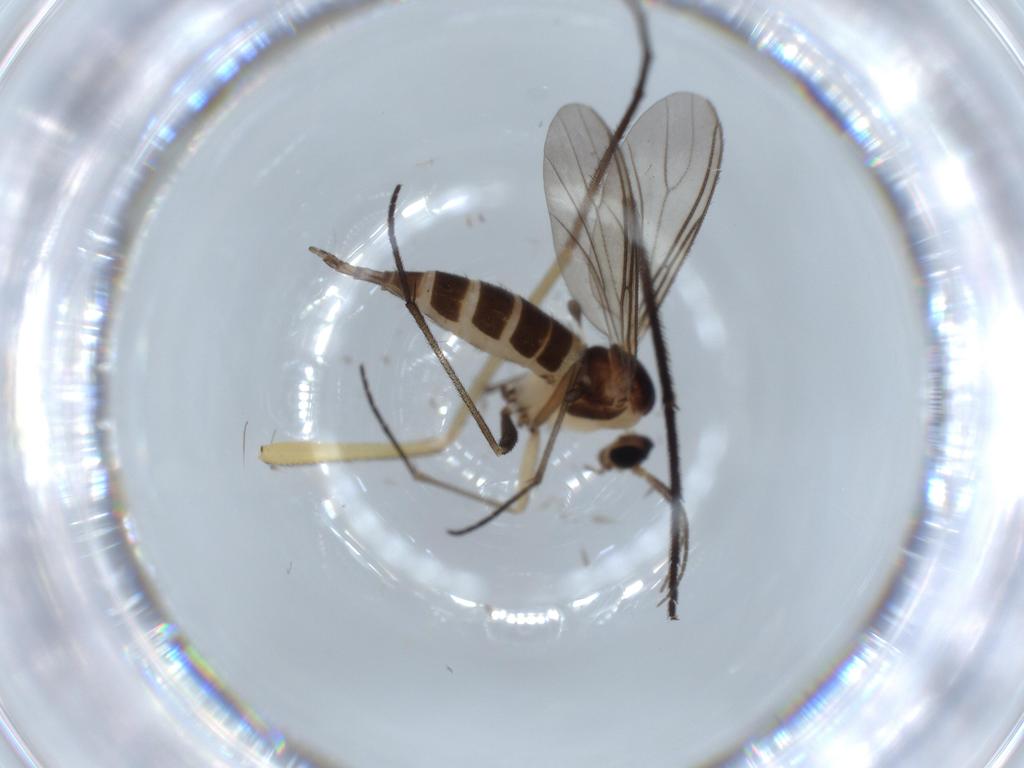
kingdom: Animalia
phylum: Arthropoda
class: Insecta
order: Diptera
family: Dolichopodidae
